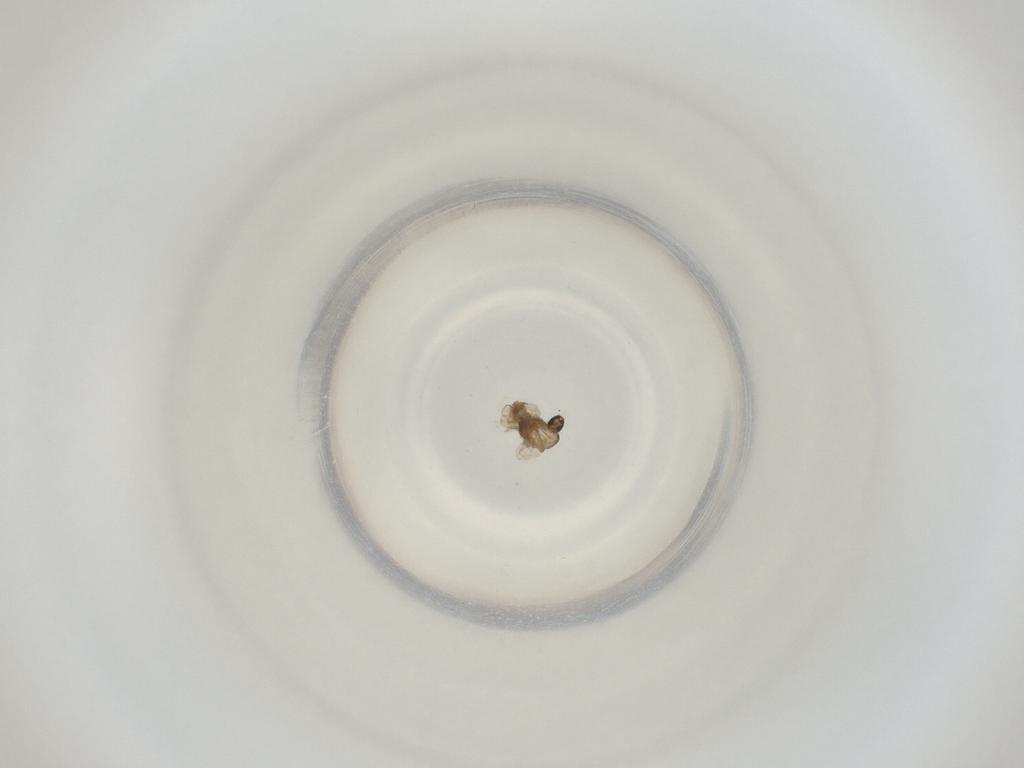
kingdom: Animalia
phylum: Arthropoda
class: Insecta
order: Diptera
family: Cecidomyiidae
